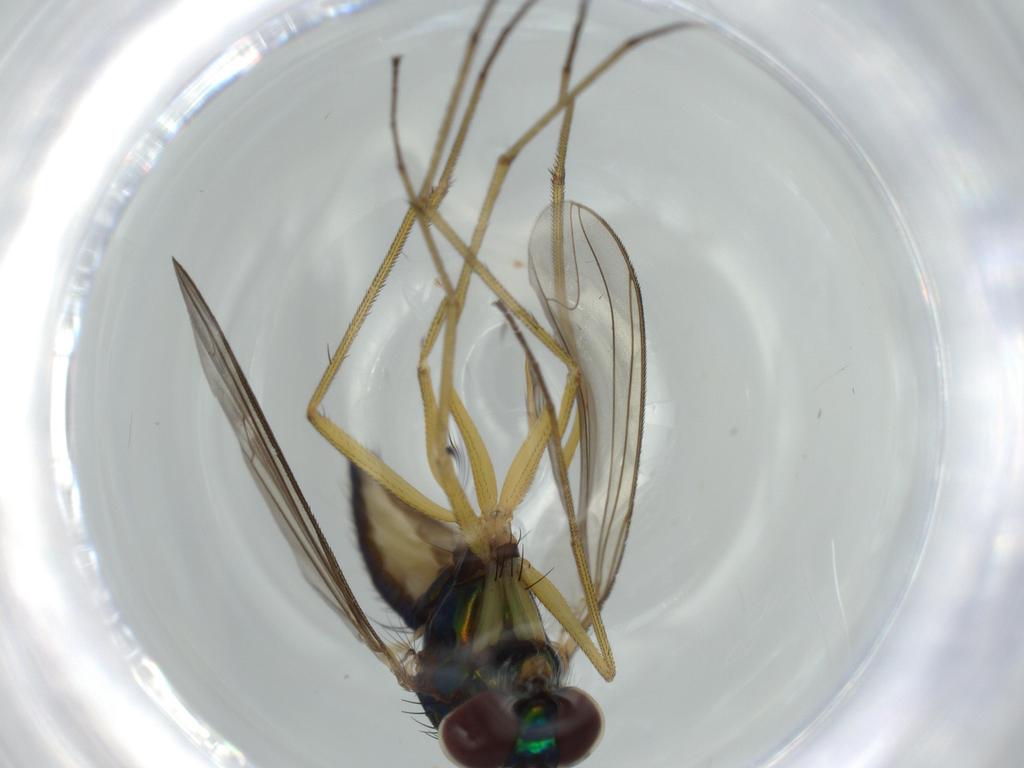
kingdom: Animalia
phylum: Arthropoda
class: Insecta
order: Diptera
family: Dolichopodidae
